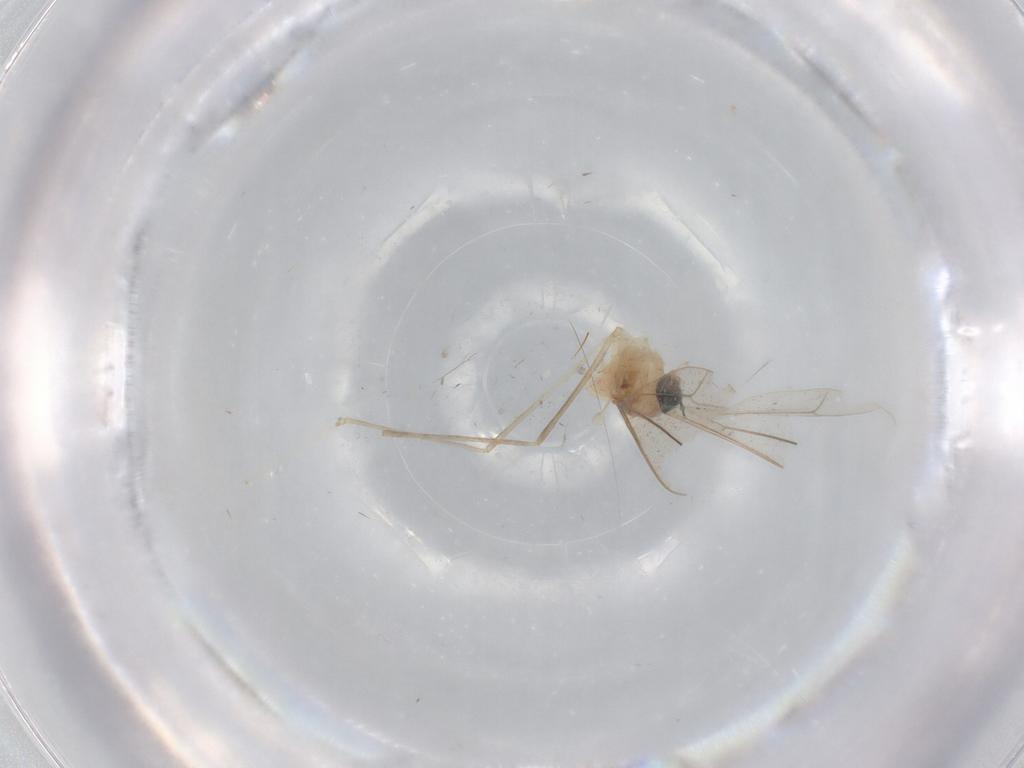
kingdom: Animalia
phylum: Arthropoda
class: Insecta
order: Diptera
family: Cecidomyiidae
